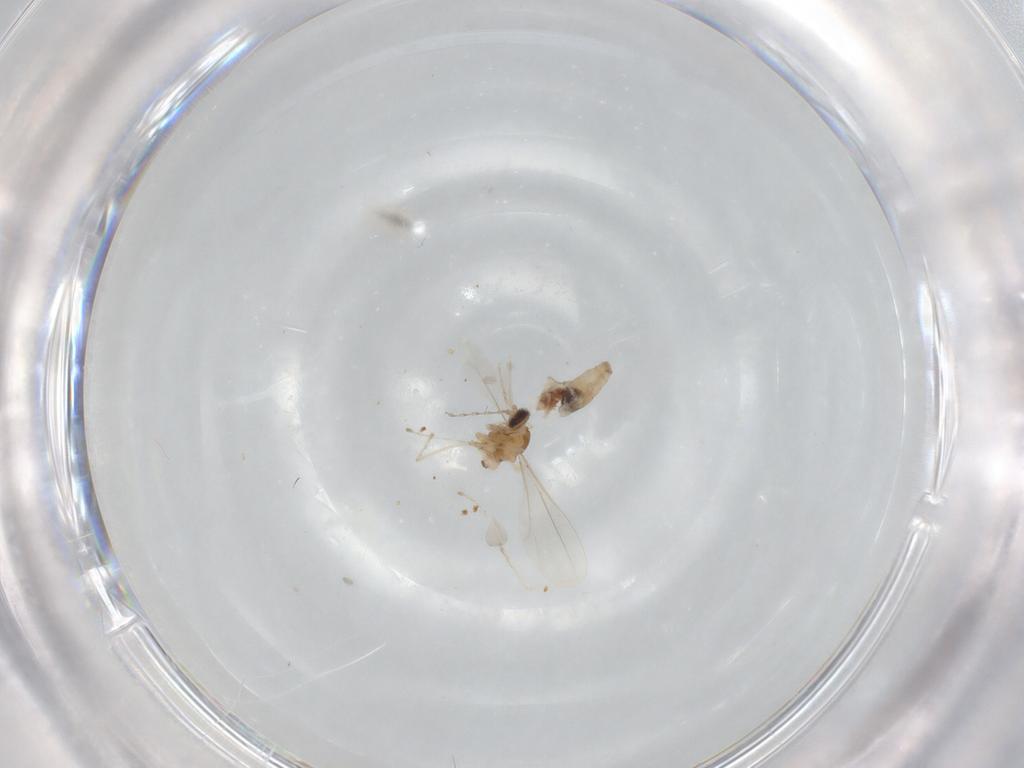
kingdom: Animalia
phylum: Arthropoda
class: Insecta
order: Diptera
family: Cecidomyiidae
